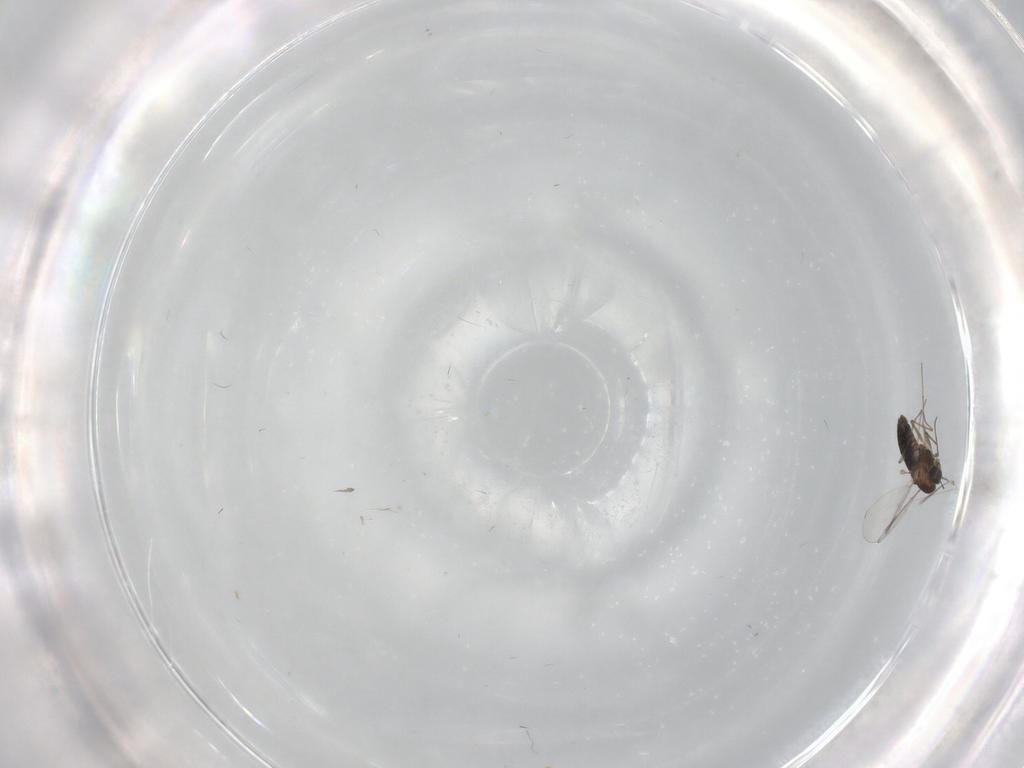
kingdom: Animalia
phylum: Arthropoda
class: Insecta
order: Diptera
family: Chironomidae
